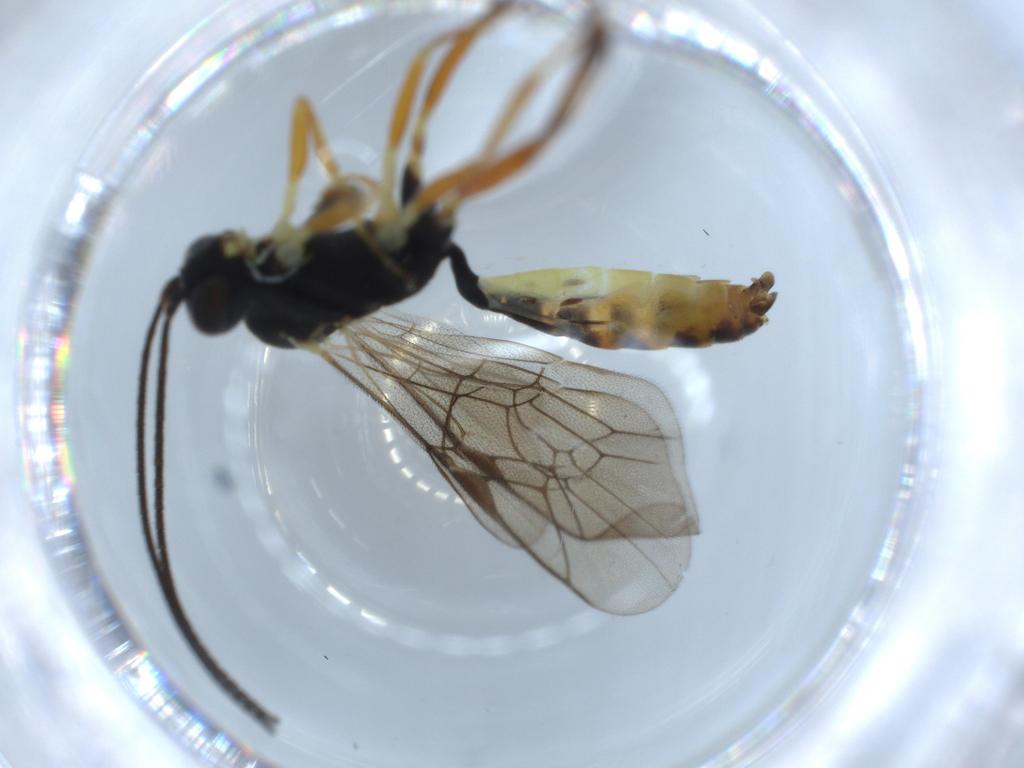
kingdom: Animalia
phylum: Arthropoda
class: Insecta
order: Hymenoptera
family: Ichneumonidae
